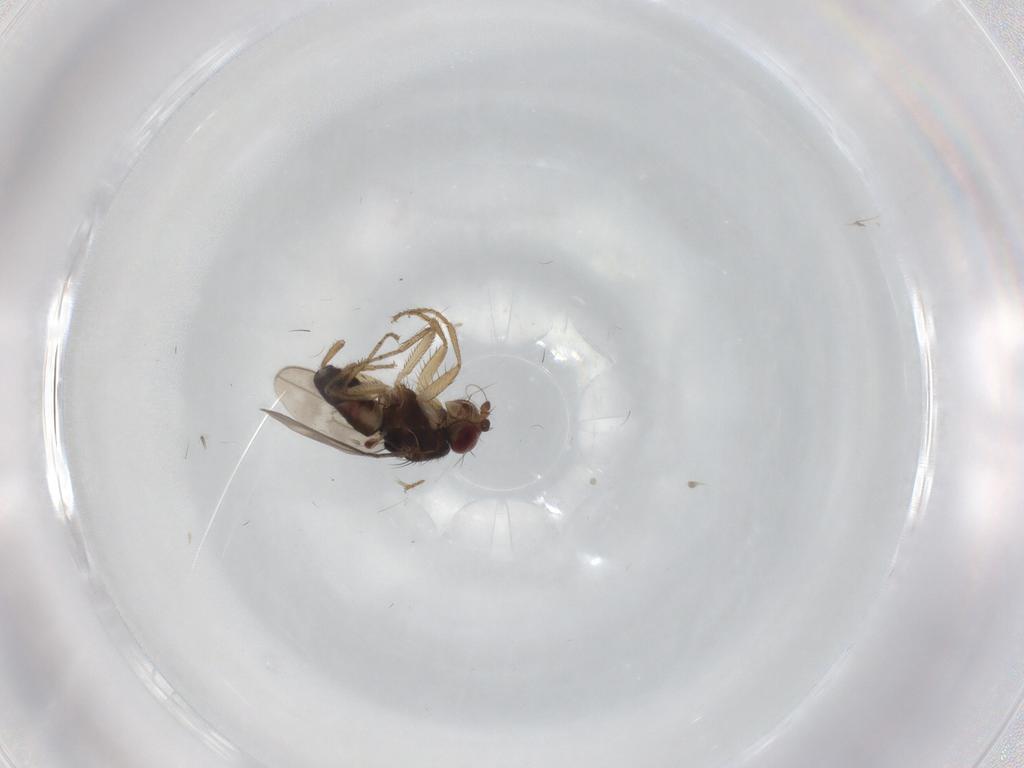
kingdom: Animalia
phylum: Arthropoda
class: Insecta
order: Diptera
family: Sphaeroceridae
